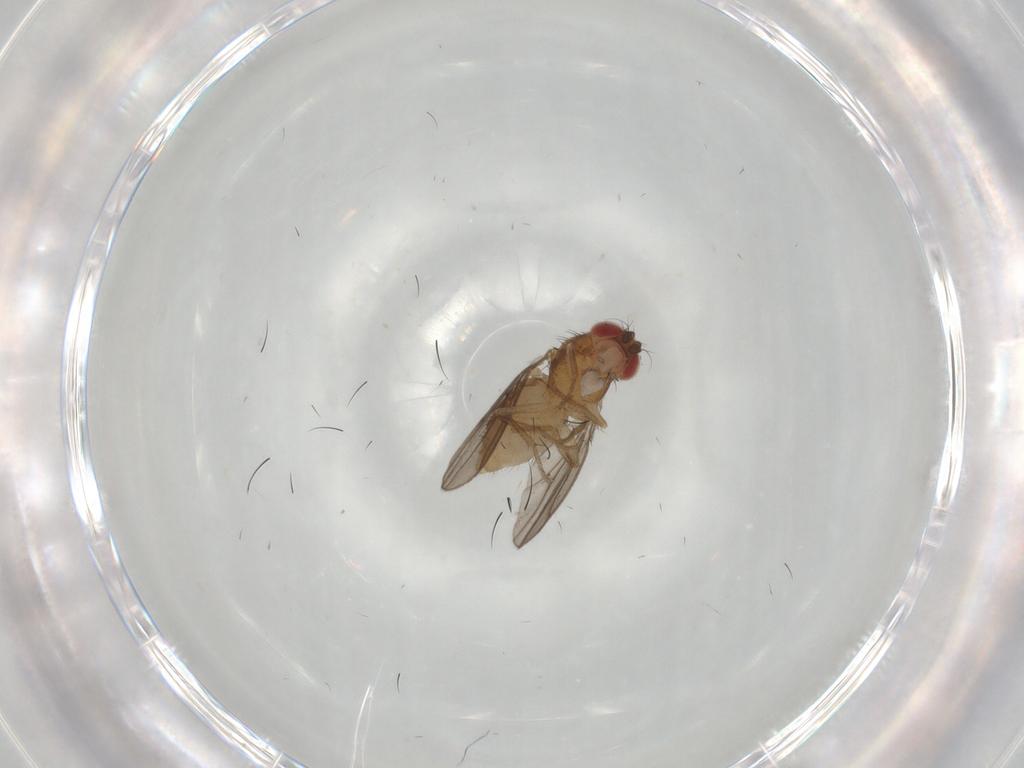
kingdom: Animalia
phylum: Arthropoda
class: Insecta
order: Diptera
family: Drosophilidae
